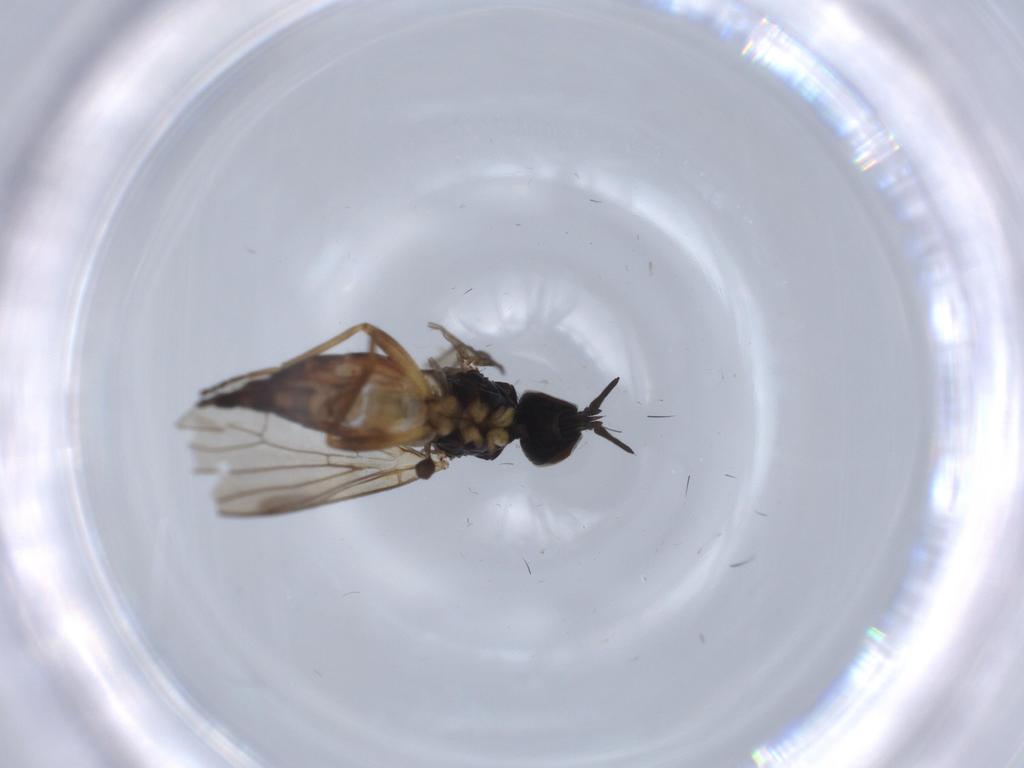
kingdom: Animalia
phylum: Arthropoda
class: Insecta
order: Diptera
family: Iteaphilidae
